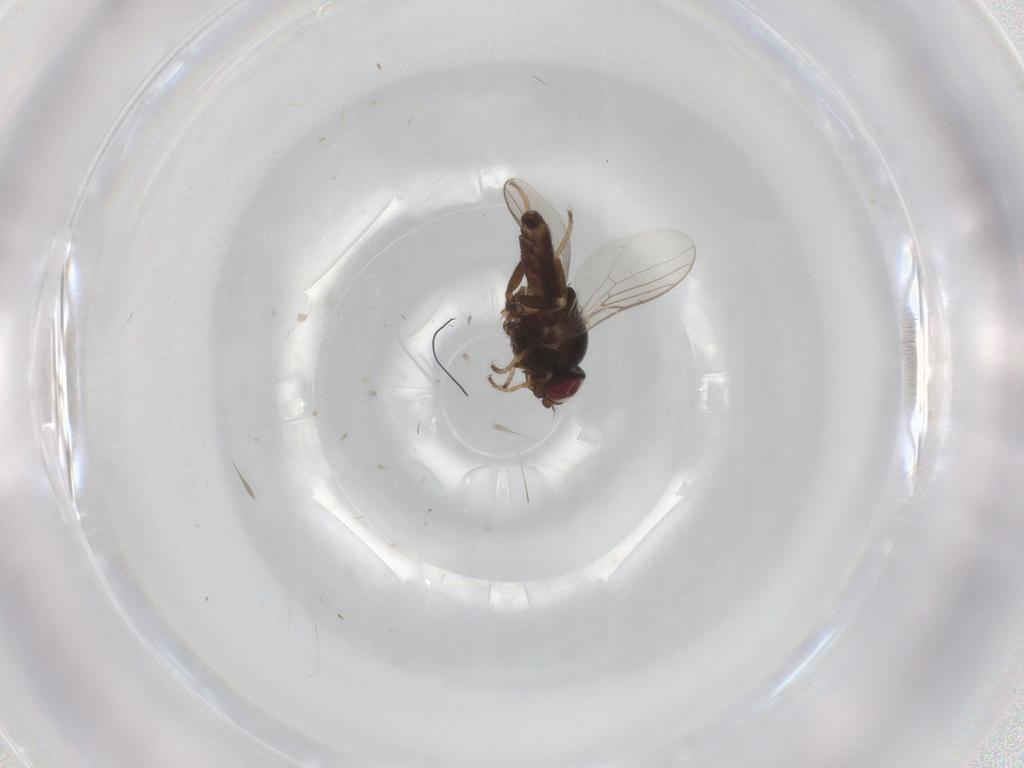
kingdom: Animalia
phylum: Arthropoda
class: Insecta
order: Diptera
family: Chloropidae
